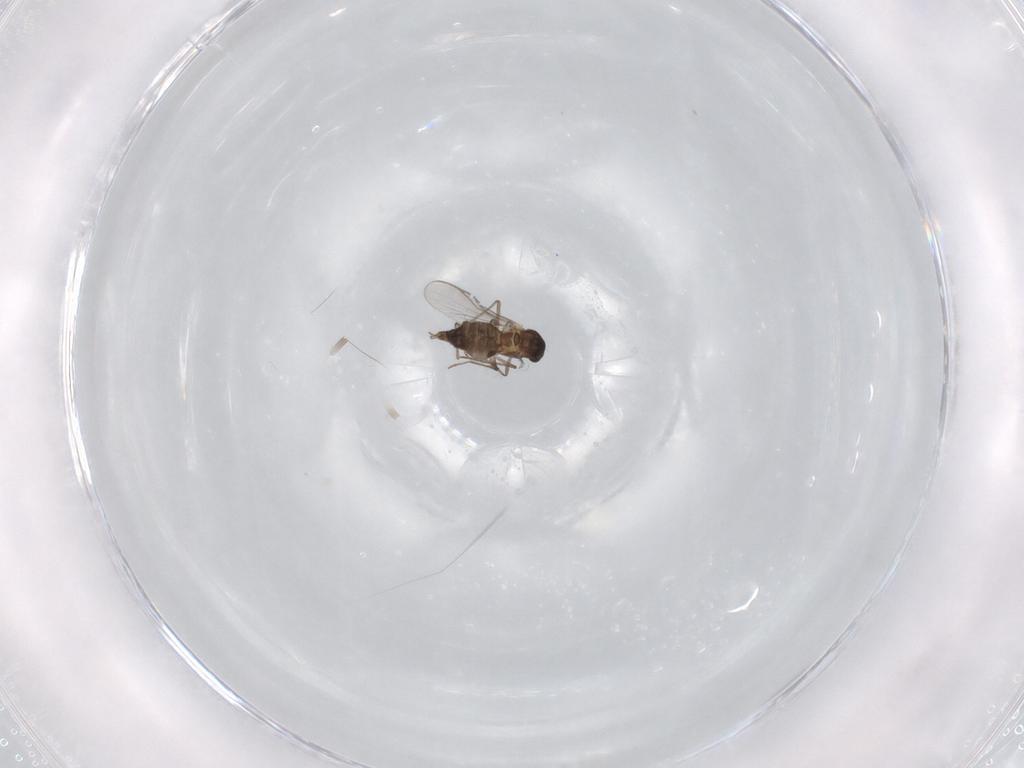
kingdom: Animalia
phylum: Arthropoda
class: Insecta
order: Diptera
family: Chironomidae
